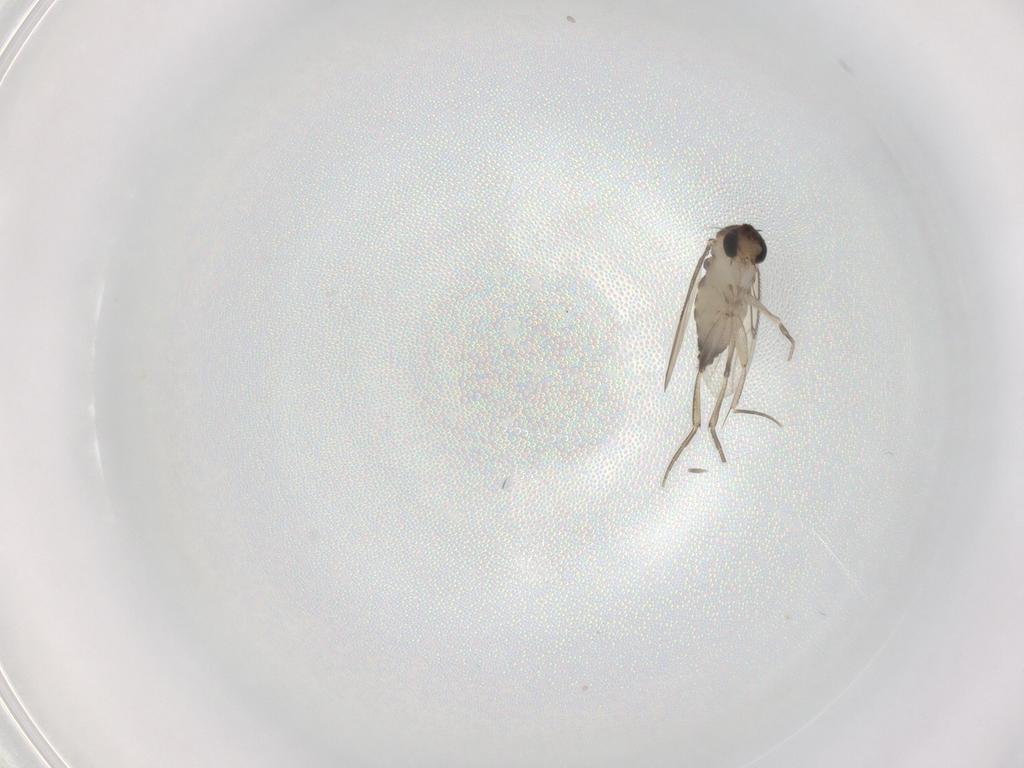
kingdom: Animalia
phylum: Arthropoda
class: Insecta
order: Diptera
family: Phoridae
